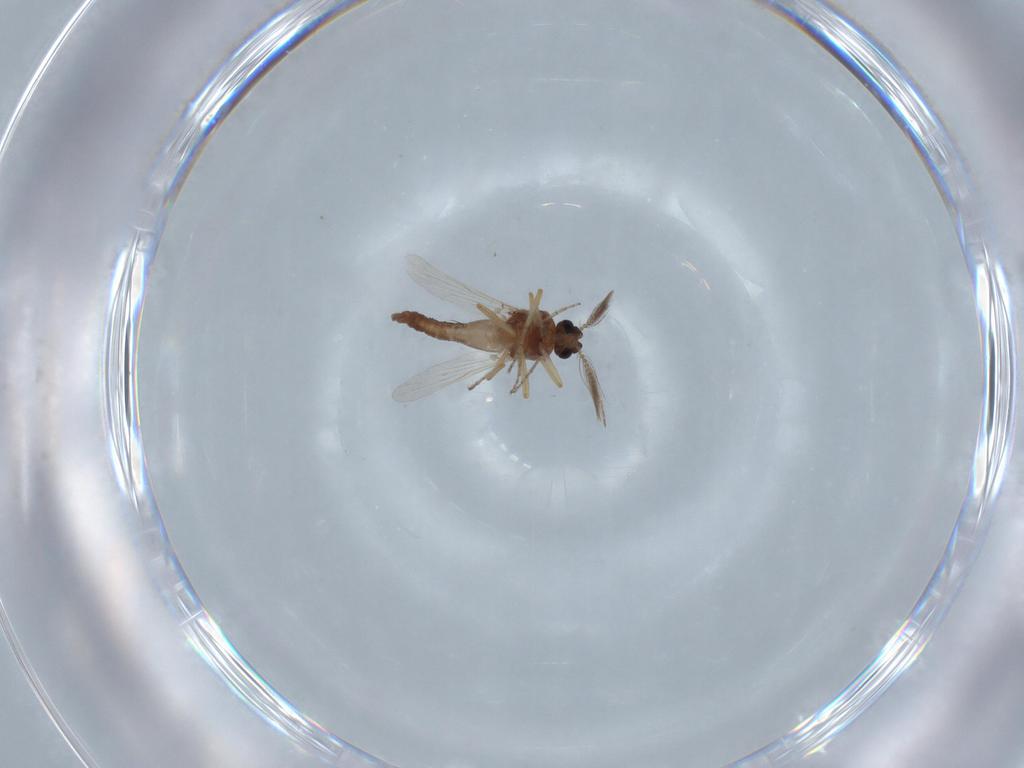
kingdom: Animalia
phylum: Arthropoda
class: Insecta
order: Diptera
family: Ceratopogonidae
